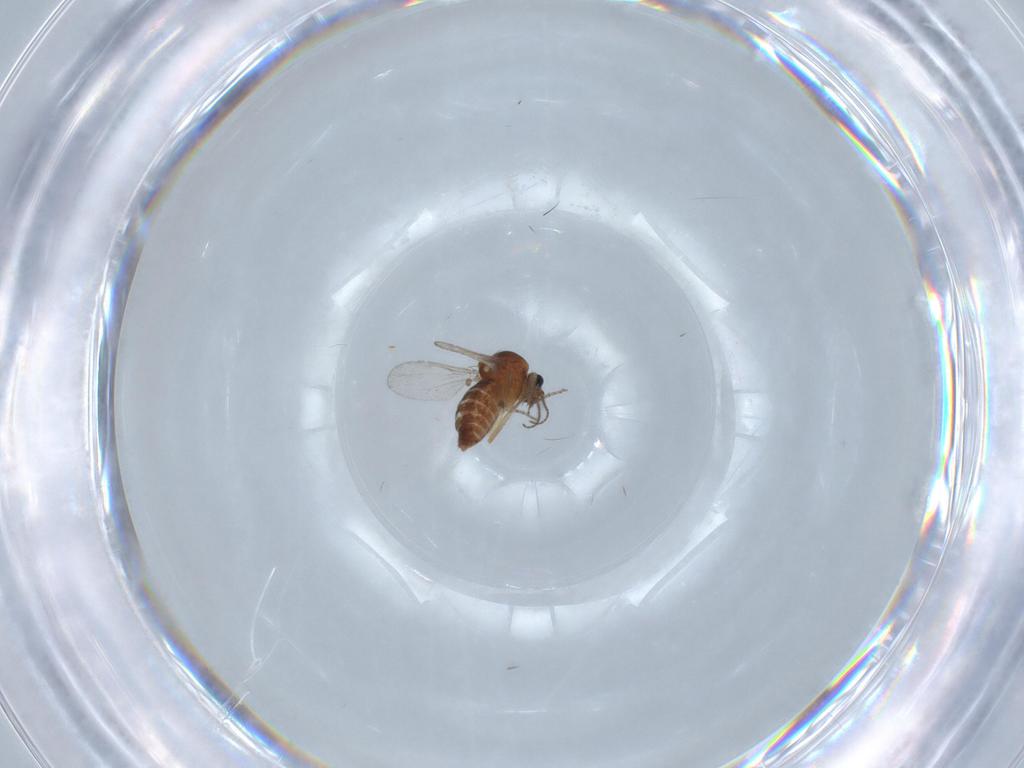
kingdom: Animalia
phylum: Arthropoda
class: Insecta
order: Diptera
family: Ceratopogonidae
